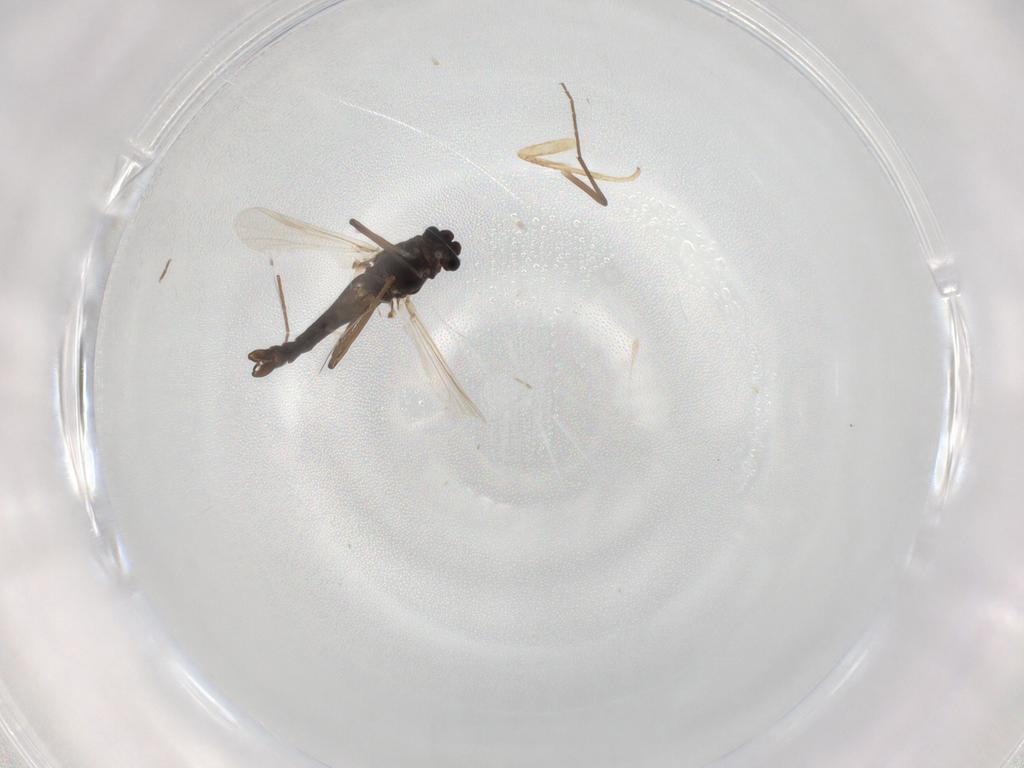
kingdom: Animalia
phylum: Arthropoda
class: Insecta
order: Diptera
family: Chironomidae
